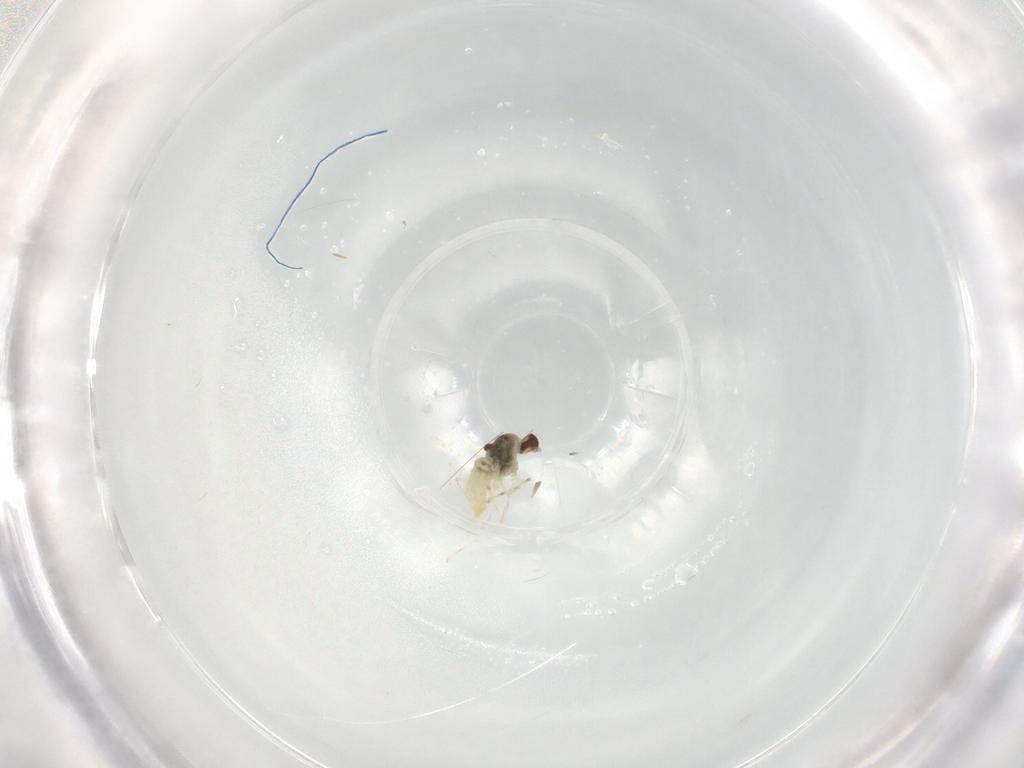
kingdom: Animalia
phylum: Arthropoda
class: Insecta
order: Diptera
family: Cecidomyiidae
